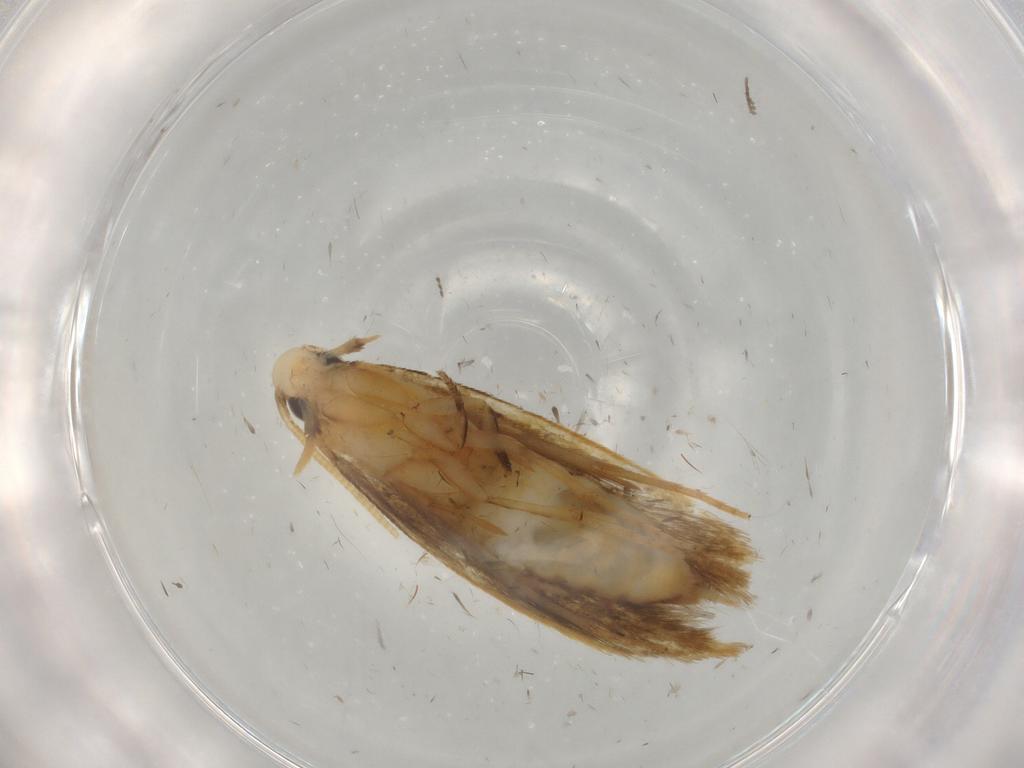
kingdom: Animalia
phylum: Arthropoda
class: Insecta
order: Lepidoptera
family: Tineidae
